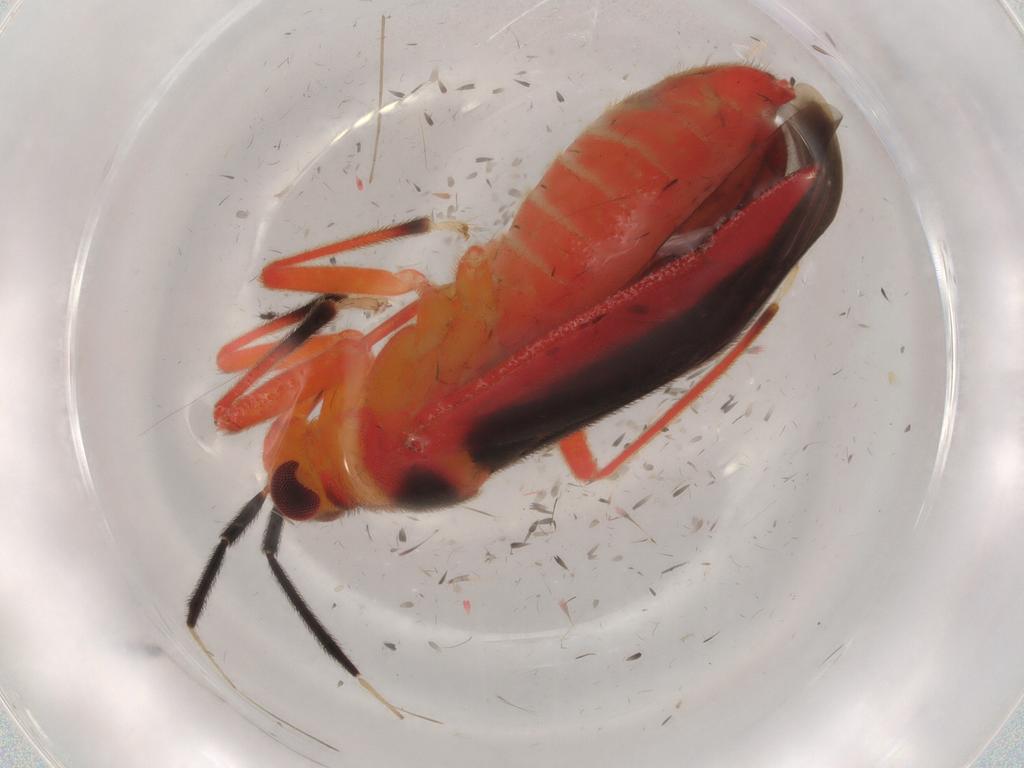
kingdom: Animalia
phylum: Arthropoda
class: Insecta
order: Hemiptera
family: Miridae
